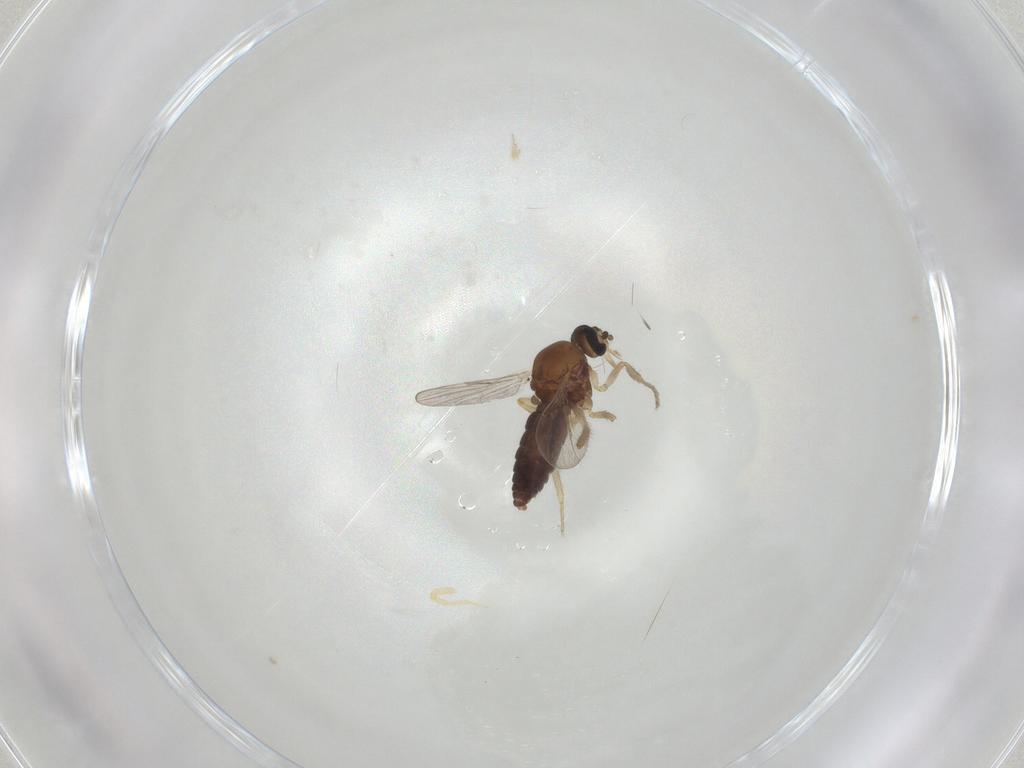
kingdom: Animalia
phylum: Arthropoda
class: Insecta
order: Diptera
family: Ceratopogonidae
